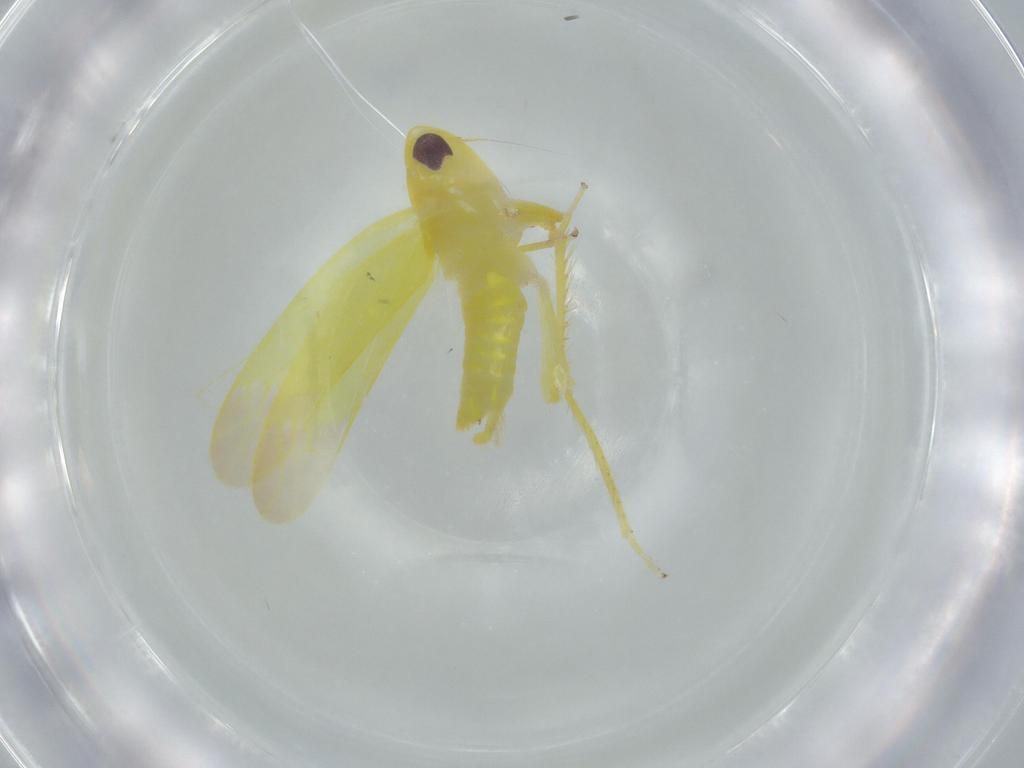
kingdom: Animalia
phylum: Arthropoda
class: Insecta
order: Hemiptera
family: Cicadellidae
